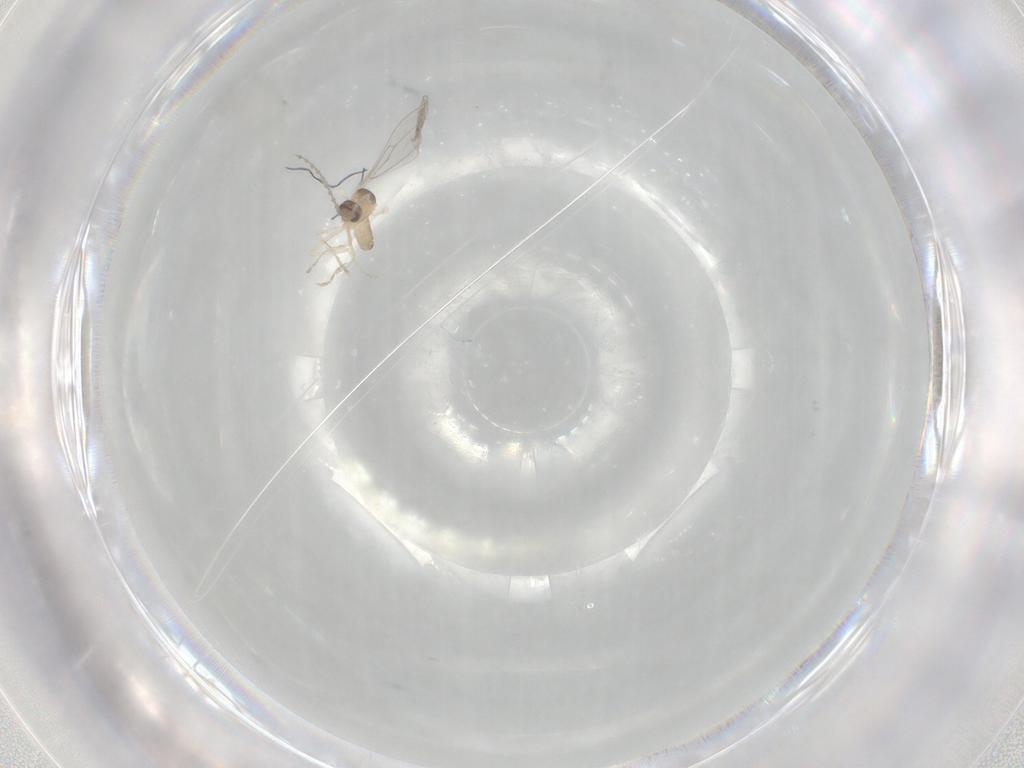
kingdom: Animalia
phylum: Arthropoda
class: Insecta
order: Diptera
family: Cecidomyiidae
